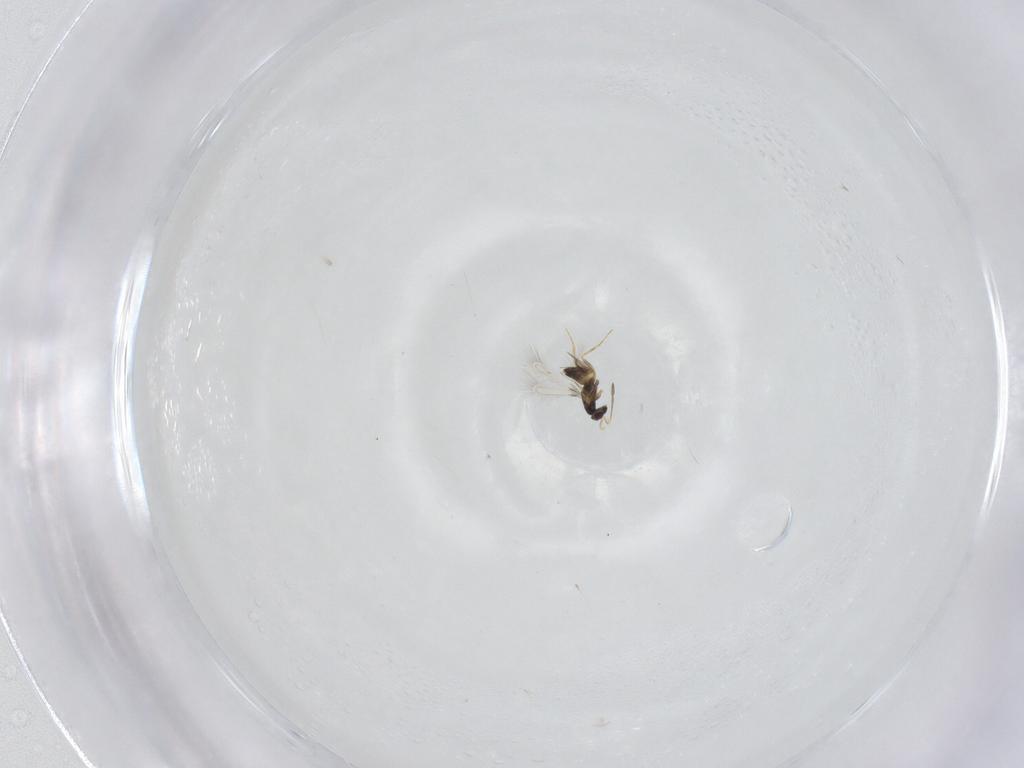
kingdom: Animalia
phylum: Arthropoda
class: Insecta
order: Hymenoptera
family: Mymaridae
